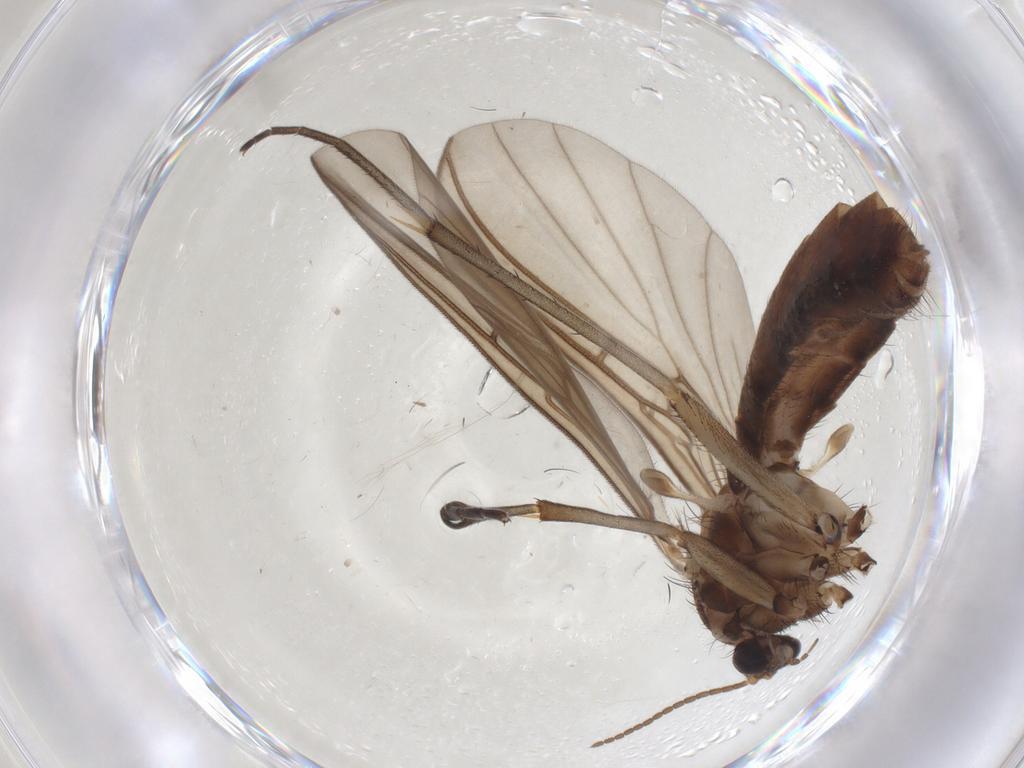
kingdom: Animalia
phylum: Arthropoda
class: Insecta
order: Diptera
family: Mycetophilidae
